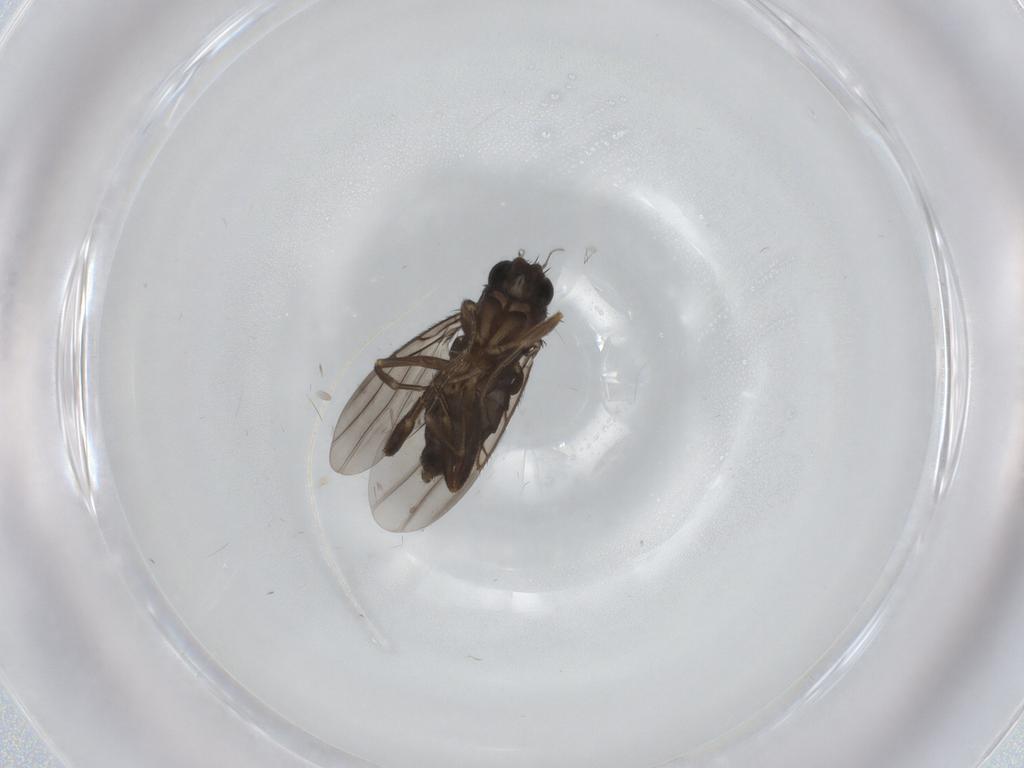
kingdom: Animalia
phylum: Arthropoda
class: Insecta
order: Diptera
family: Phoridae
